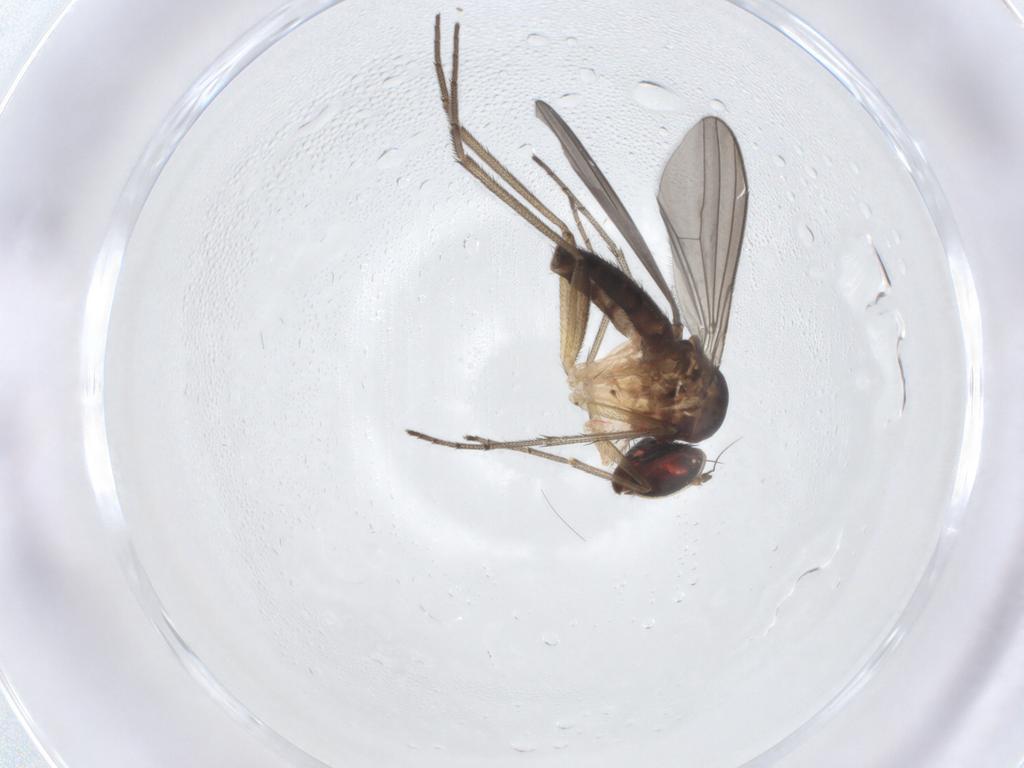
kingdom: Animalia
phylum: Arthropoda
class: Insecta
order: Diptera
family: Dolichopodidae
